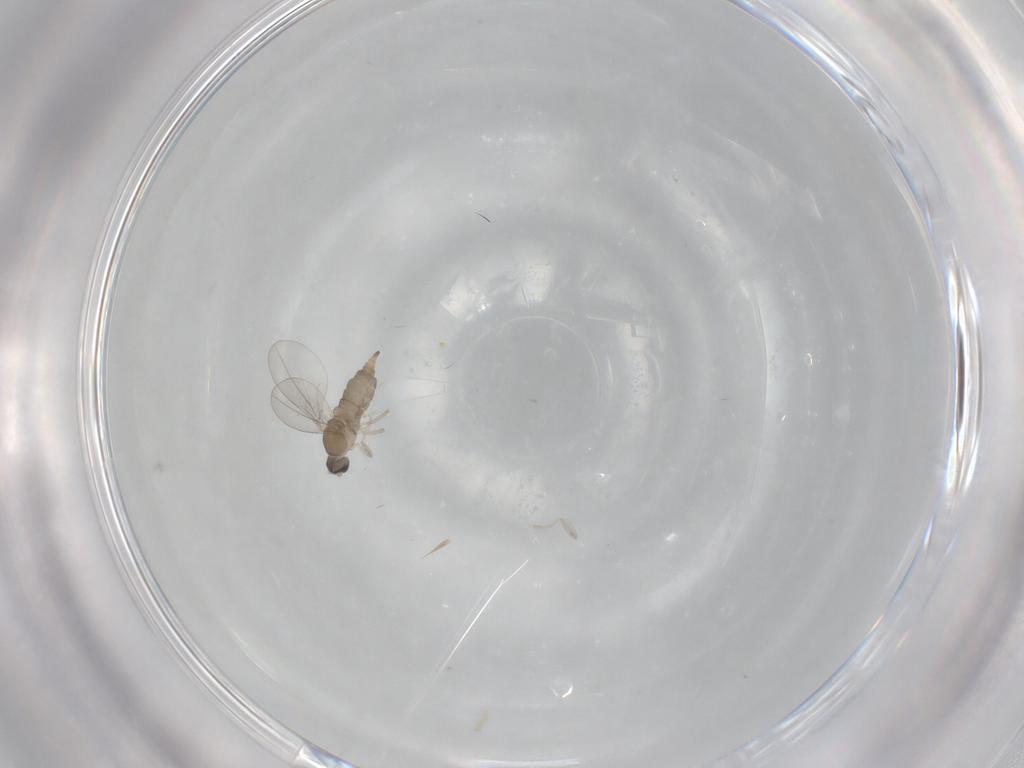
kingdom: Animalia
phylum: Arthropoda
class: Insecta
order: Diptera
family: Cecidomyiidae
